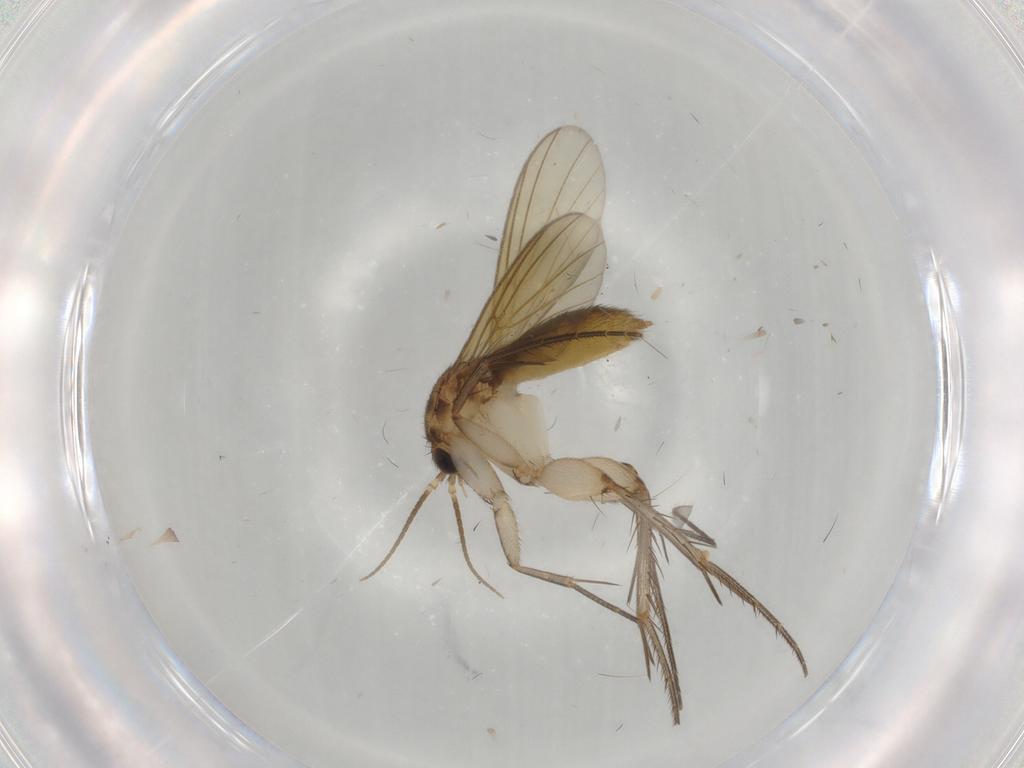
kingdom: Animalia
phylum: Arthropoda
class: Insecta
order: Diptera
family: Mycetophilidae
